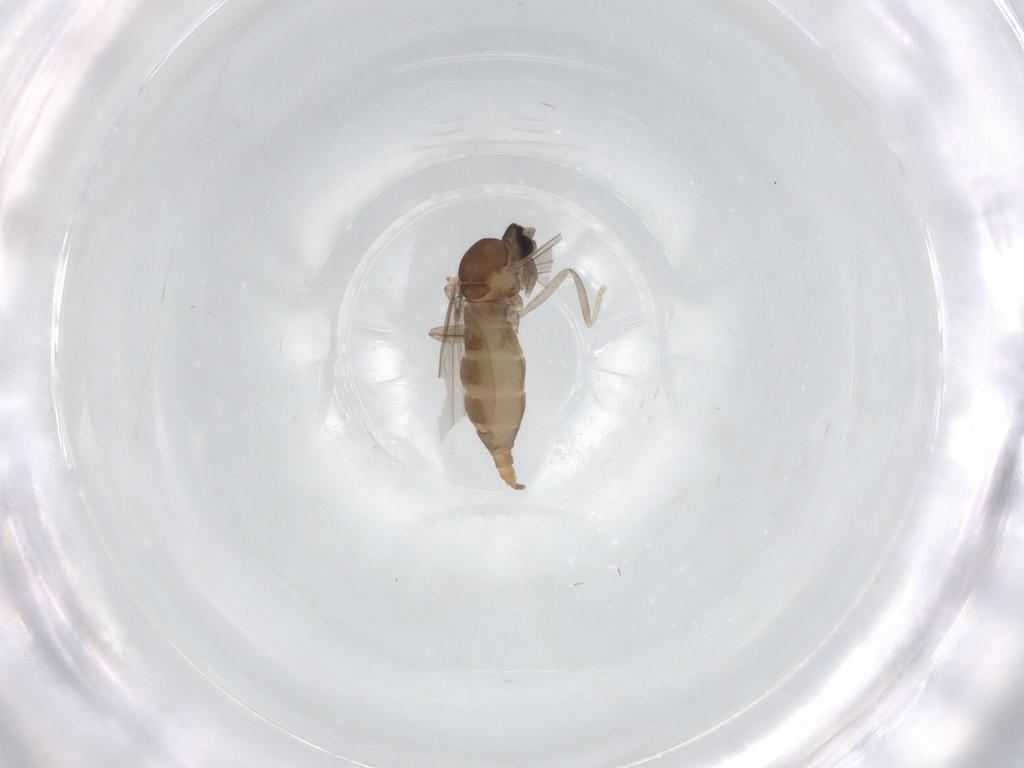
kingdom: Animalia
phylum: Arthropoda
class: Insecta
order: Diptera
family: Cecidomyiidae
